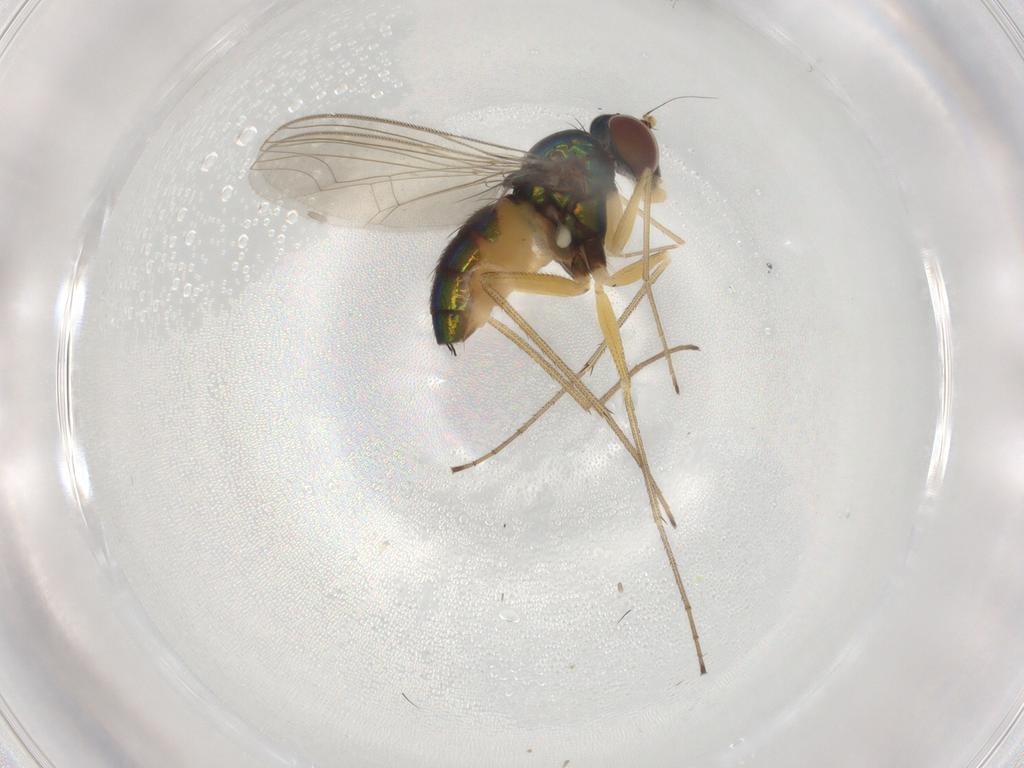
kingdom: Animalia
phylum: Arthropoda
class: Insecta
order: Diptera
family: Dolichopodidae
